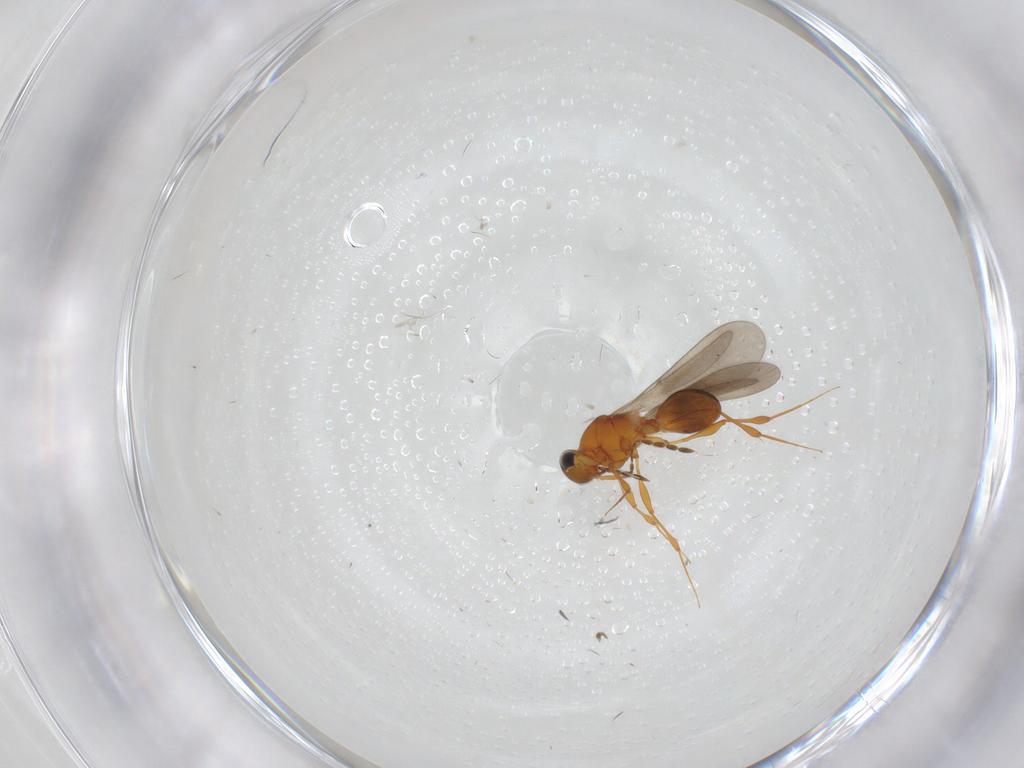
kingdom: Animalia
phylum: Arthropoda
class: Insecta
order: Hymenoptera
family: Platygastridae
